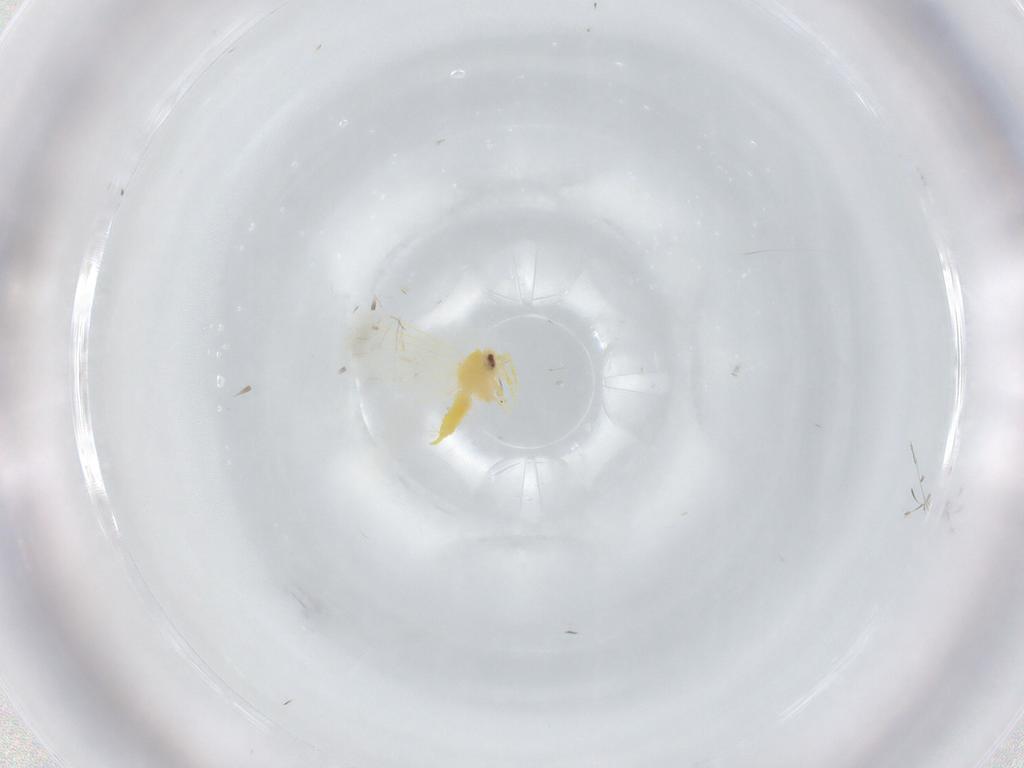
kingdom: Animalia
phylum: Arthropoda
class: Insecta
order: Hemiptera
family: Aleyrodidae
